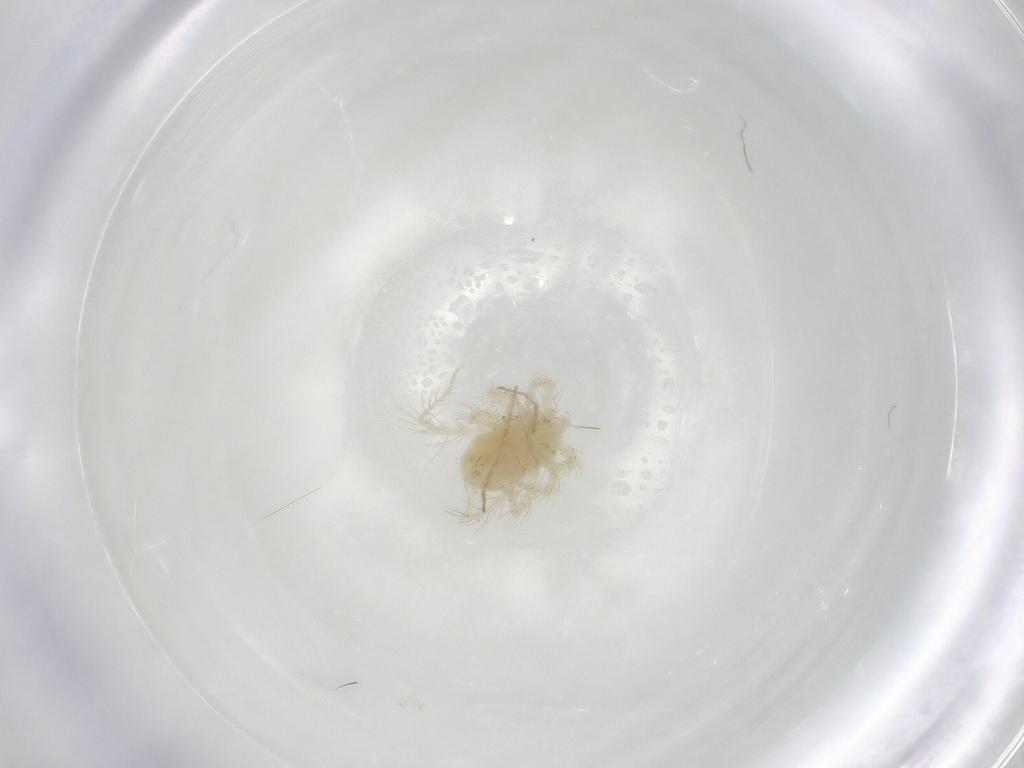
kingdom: Animalia
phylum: Arthropoda
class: Arachnida
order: Trombidiformes
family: Anystidae
